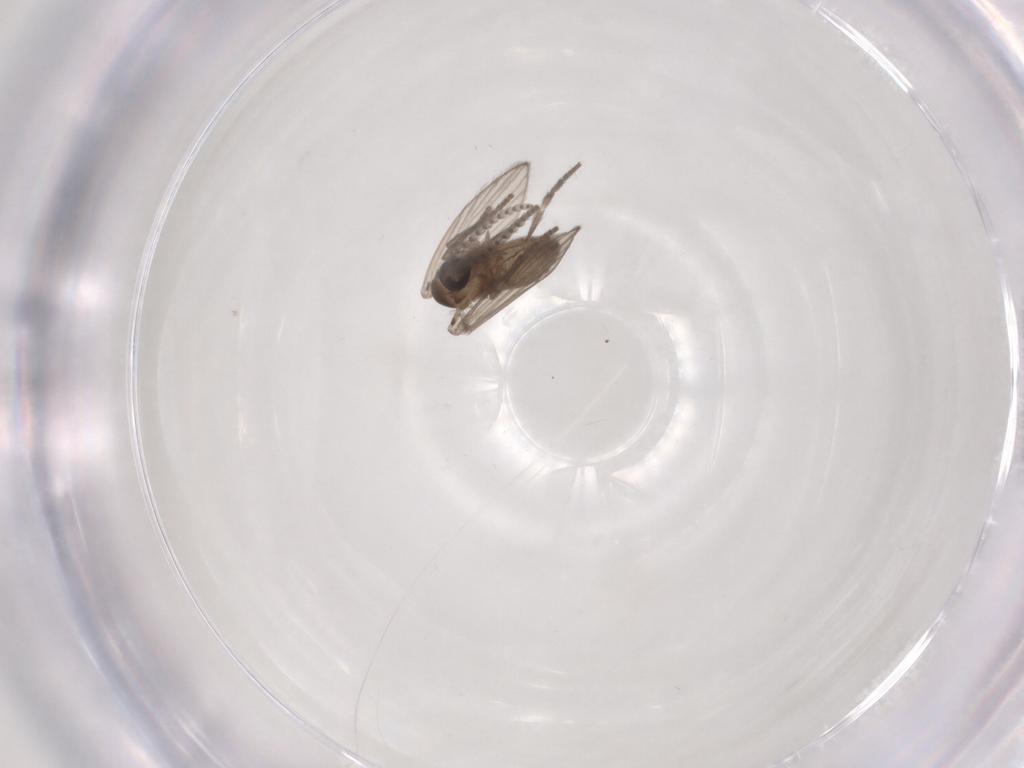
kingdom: Animalia
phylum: Arthropoda
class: Insecta
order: Diptera
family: Psychodidae
